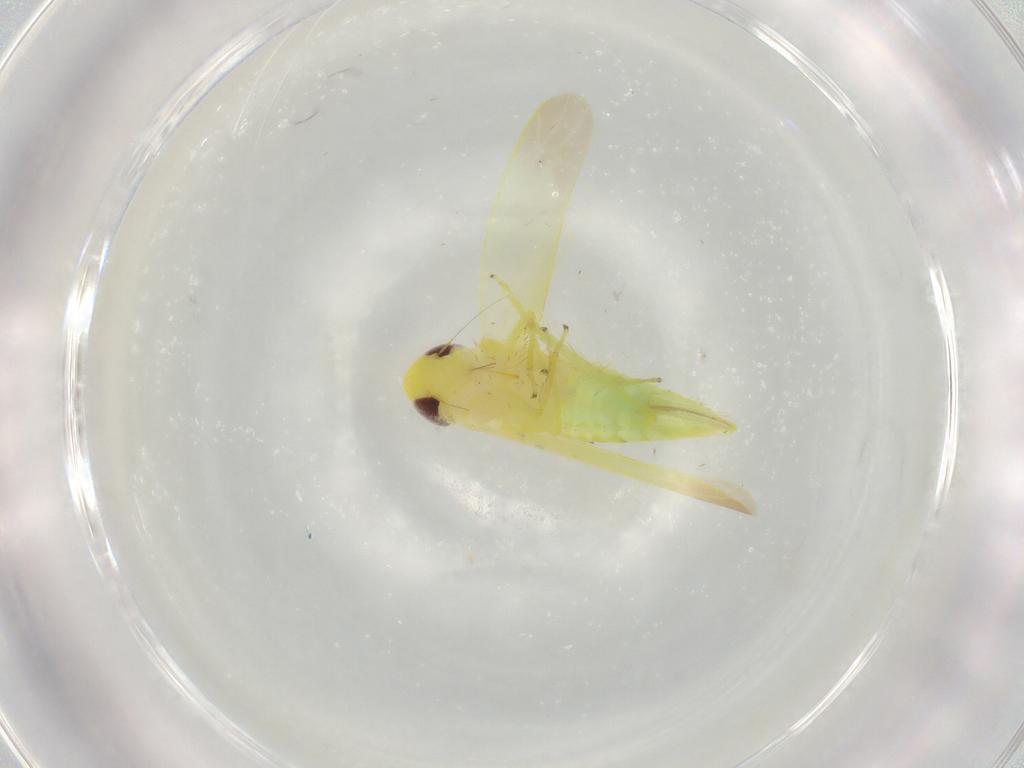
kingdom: Animalia
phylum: Arthropoda
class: Insecta
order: Hemiptera
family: Cicadellidae
